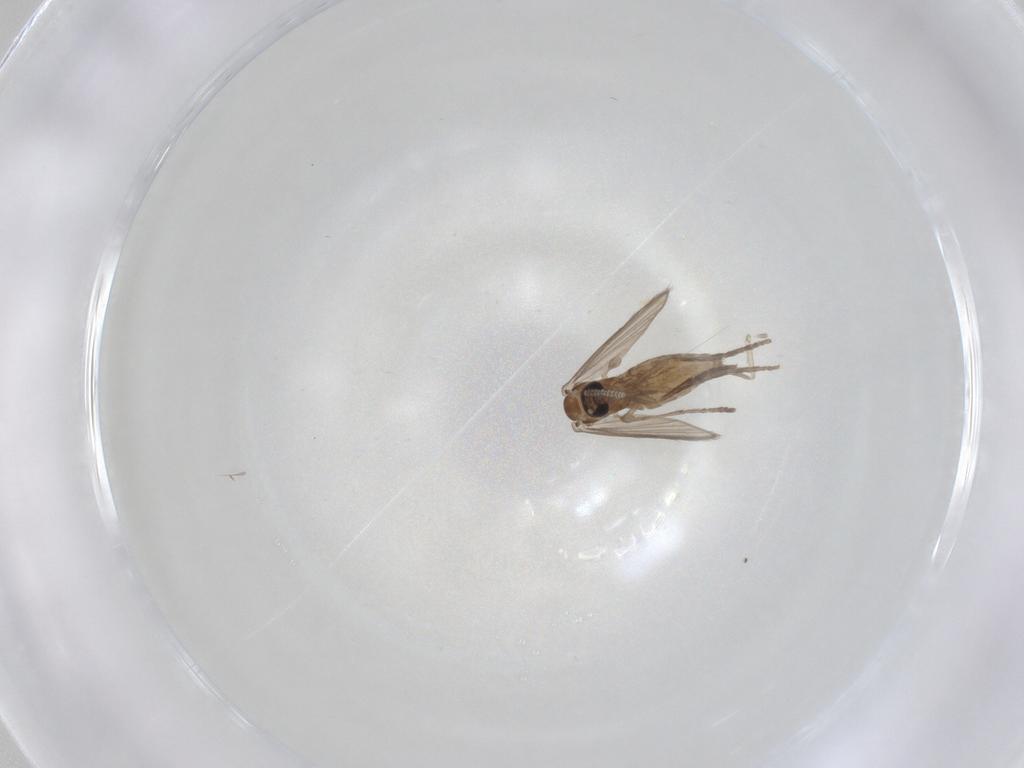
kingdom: Animalia
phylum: Arthropoda
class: Insecta
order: Diptera
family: Psychodidae
